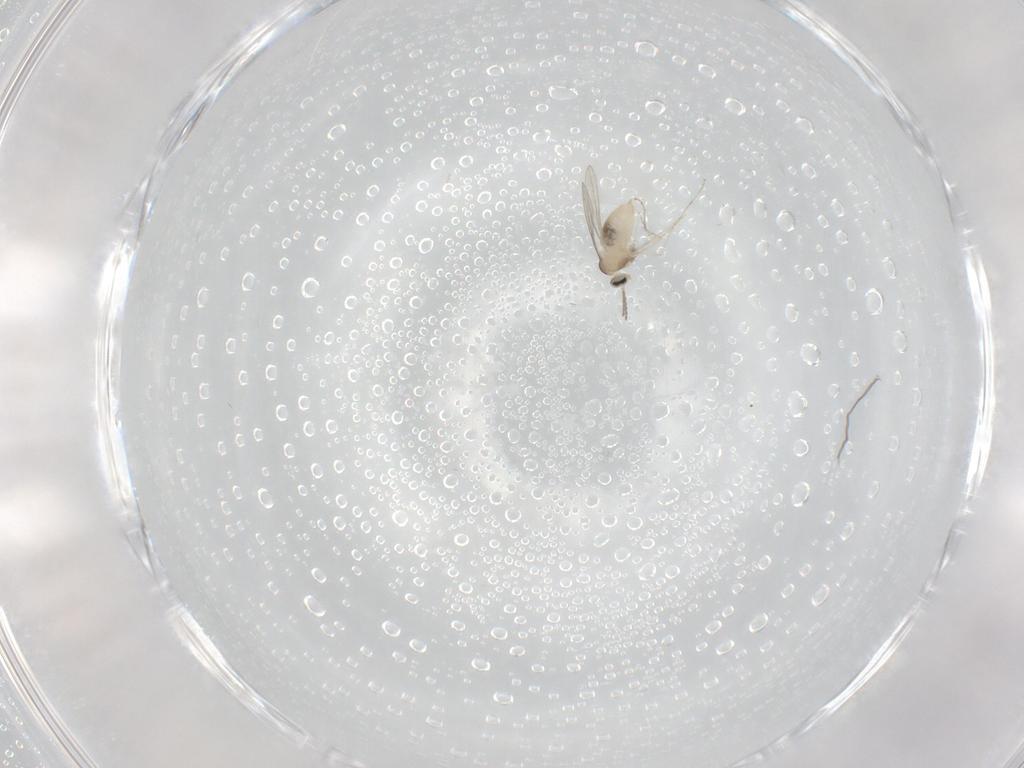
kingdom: Animalia
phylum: Arthropoda
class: Insecta
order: Diptera
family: Cecidomyiidae
